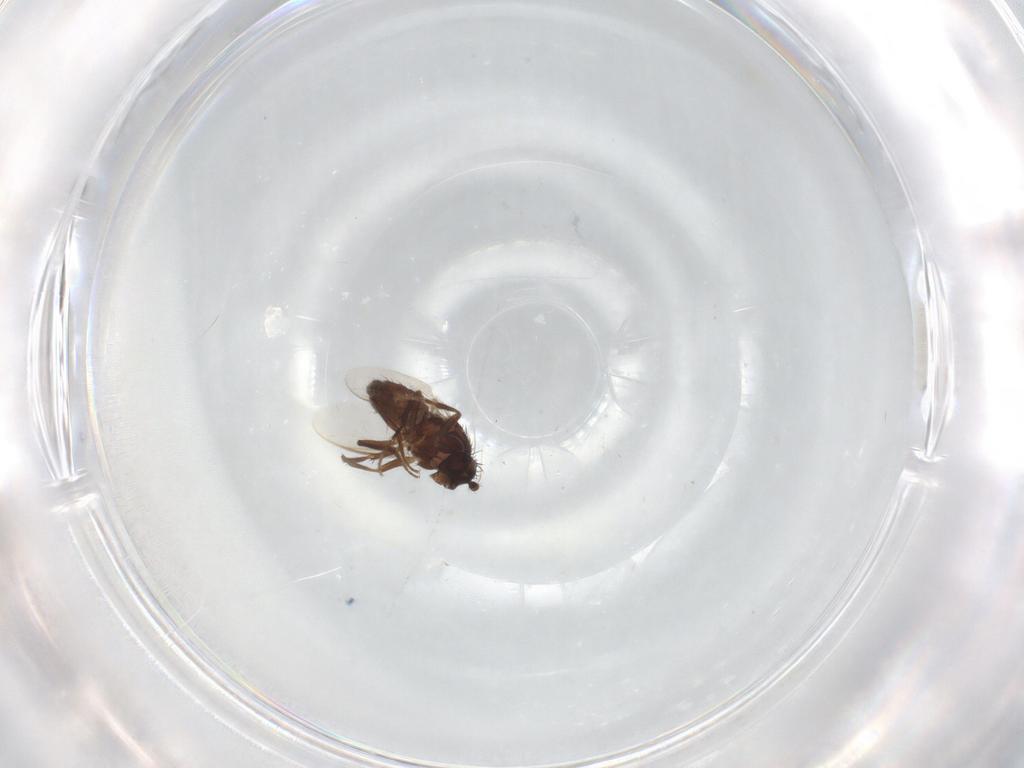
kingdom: Animalia
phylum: Arthropoda
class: Insecta
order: Diptera
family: Sphaeroceridae
